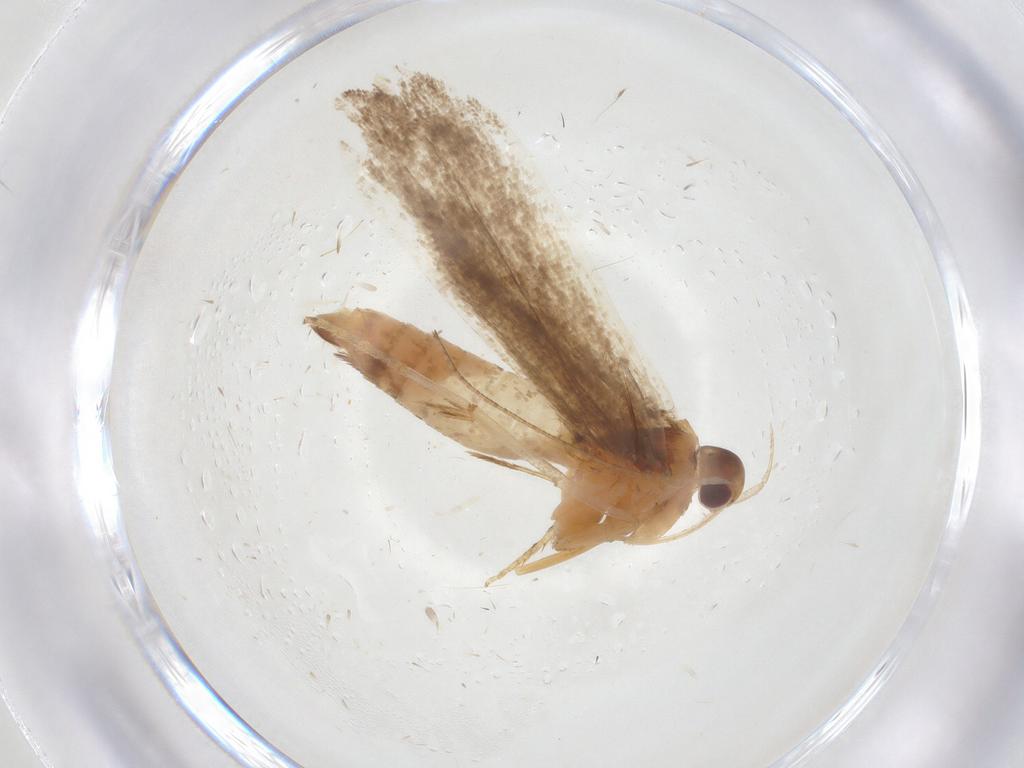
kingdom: Animalia
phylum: Arthropoda
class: Insecta
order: Lepidoptera
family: Gelechiidae
